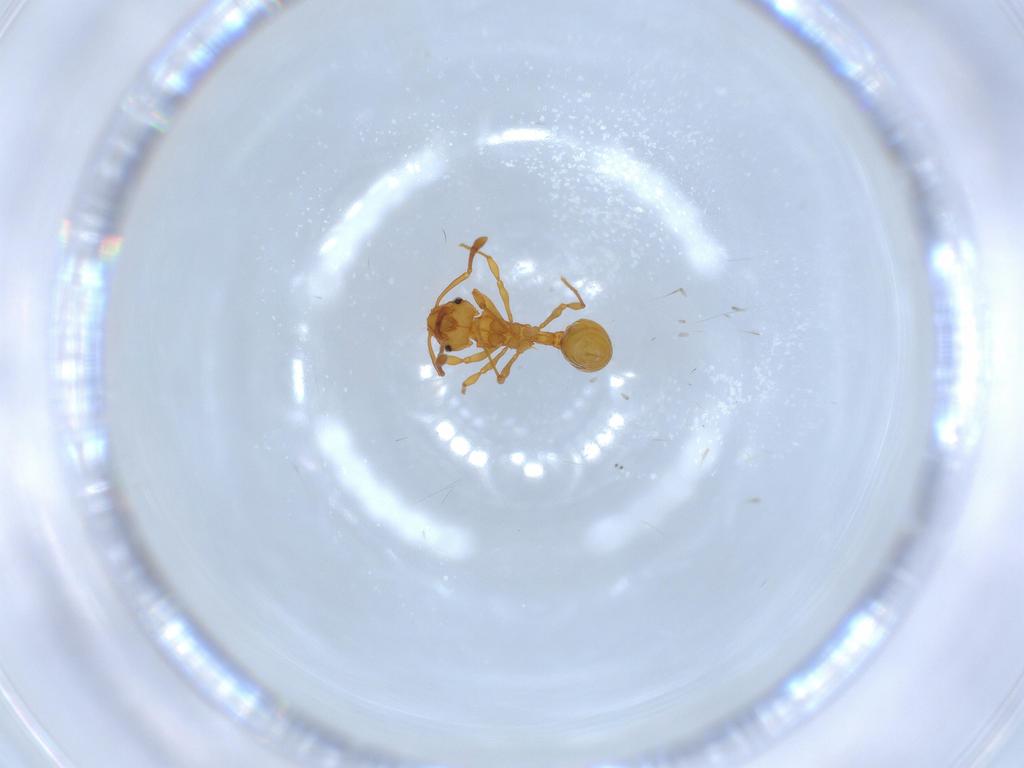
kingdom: Animalia
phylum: Arthropoda
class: Insecta
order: Hymenoptera
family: Formicidae
